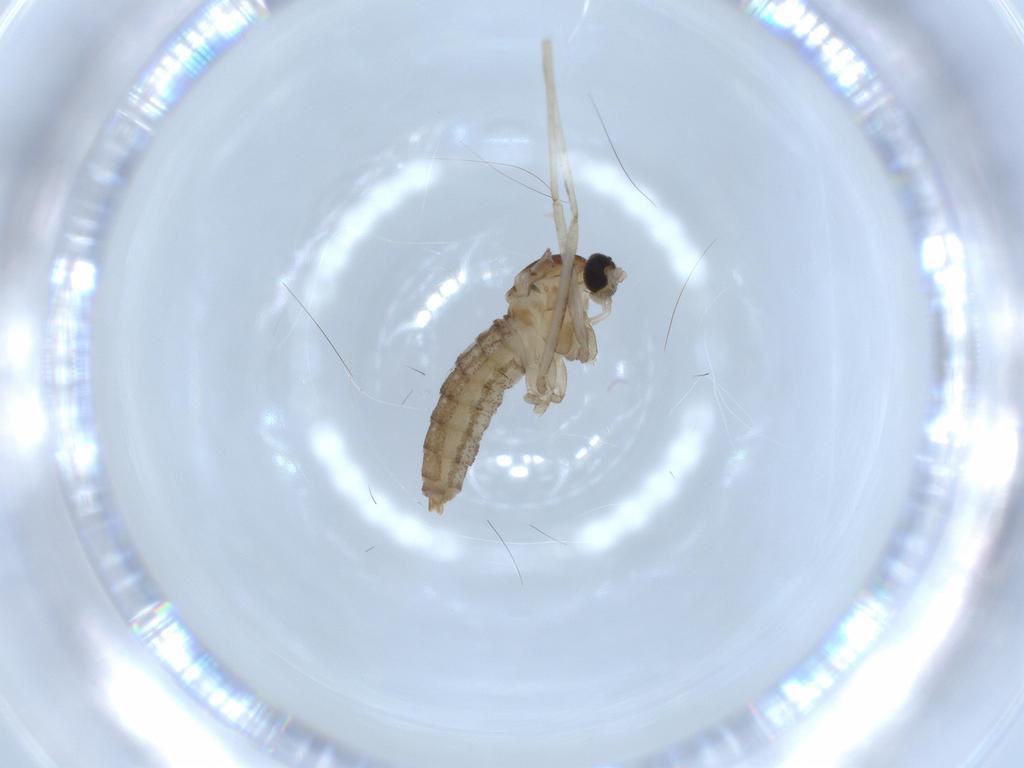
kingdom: Animalia
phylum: Arthropoda
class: Insecta
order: Diptera
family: Cecidomyiidae
